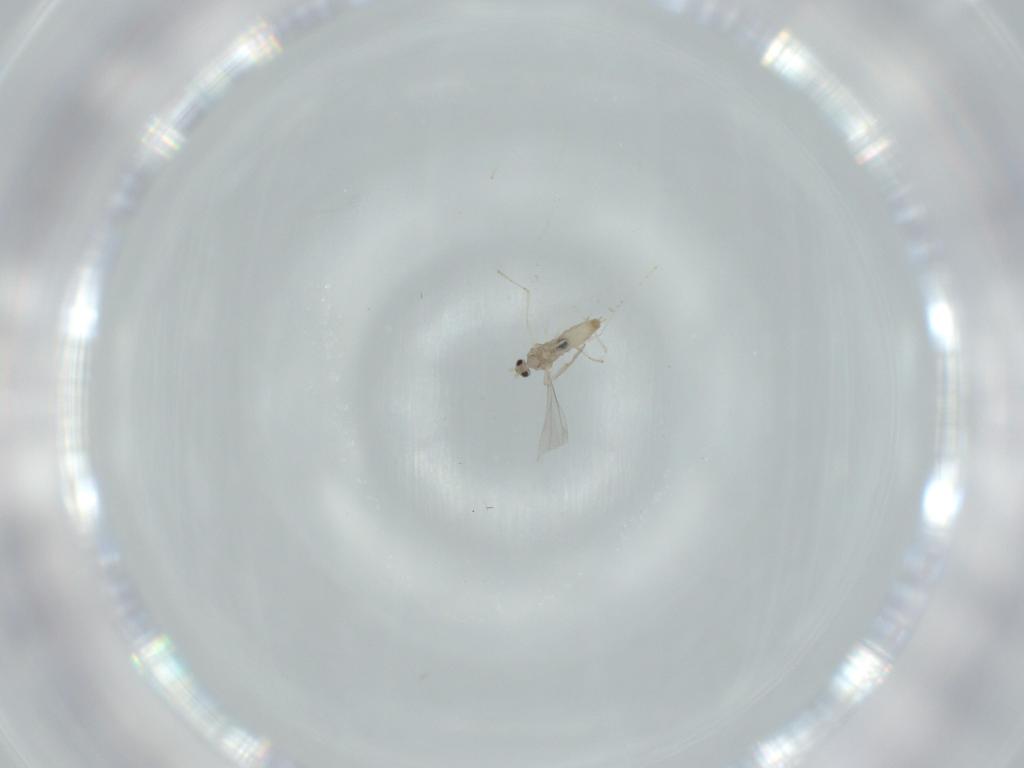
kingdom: Animalia
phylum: Arthropoda
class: Insecta
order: Diptera
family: Cecidomyiidae
